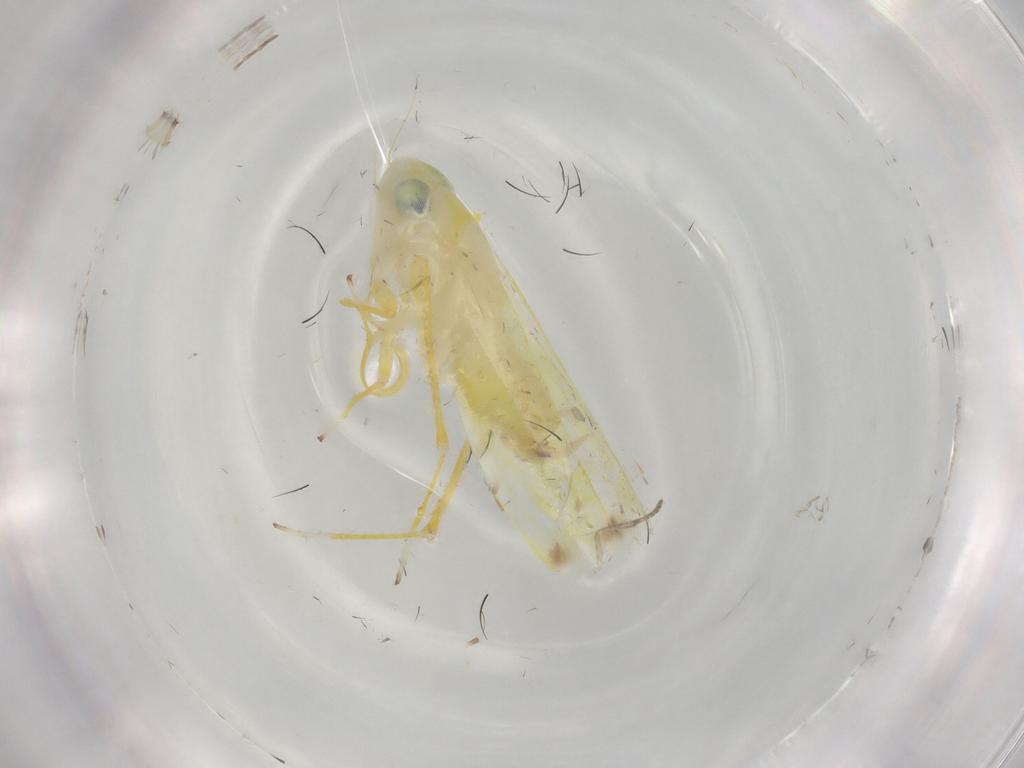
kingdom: Animalia
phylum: Arthropoda
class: Insecta
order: Hemiptera
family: Cicadellidae
